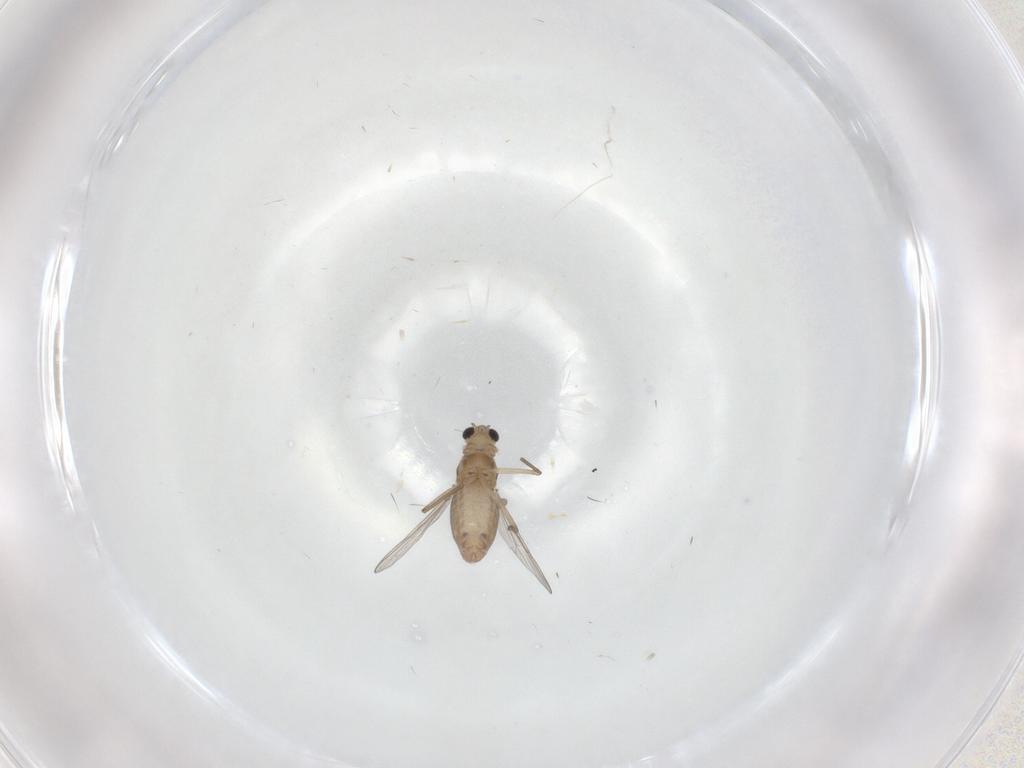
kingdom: Animalia
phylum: Arthropoda
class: Insecta
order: Diptera
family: Chironomidae
